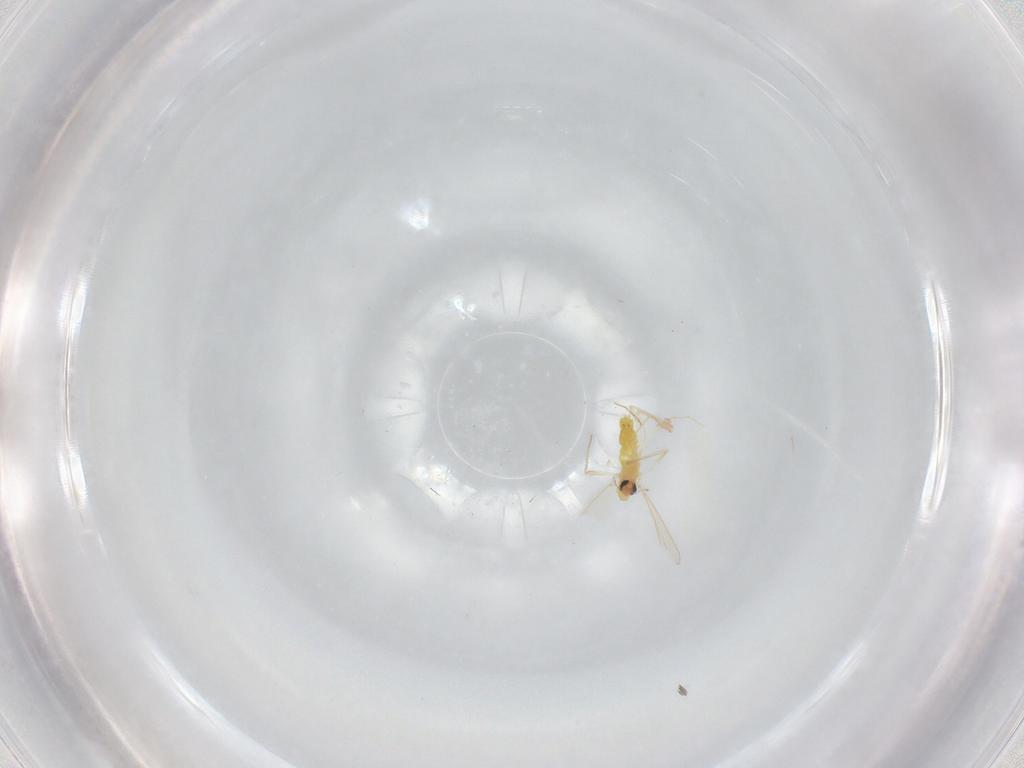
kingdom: Animalia
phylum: Arthropoda
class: Insecta
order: Diptera
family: Chironomidae
